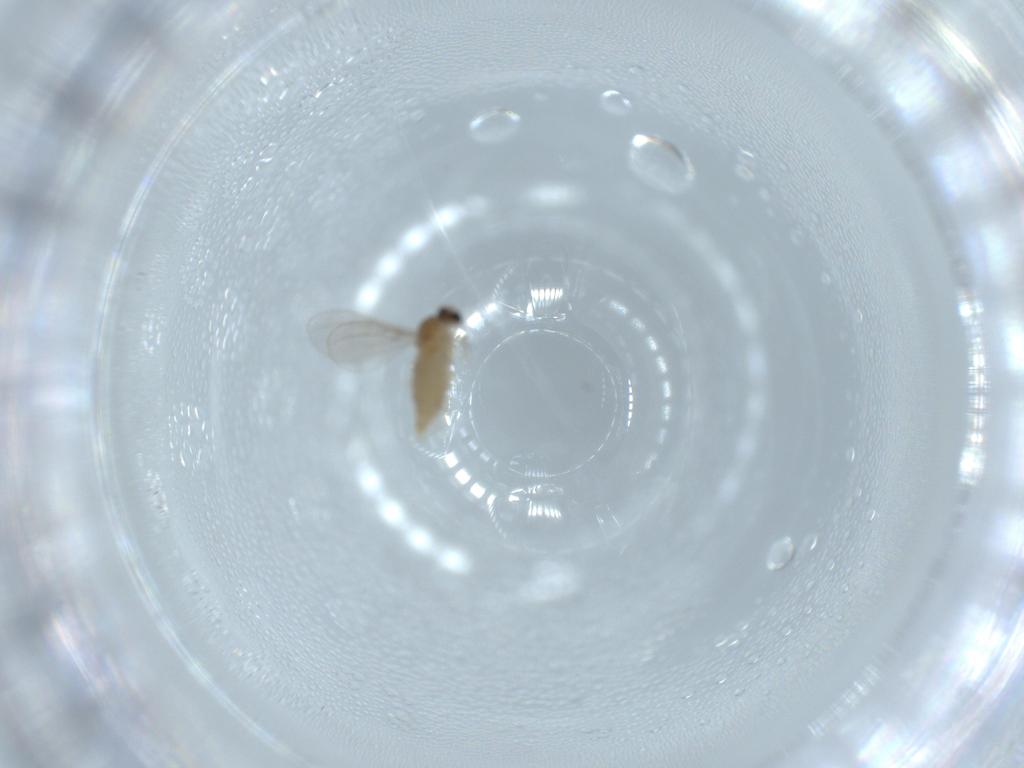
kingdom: Animalia
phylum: Arthropoda
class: Insecta
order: Diptera
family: Cecidomyiidae
